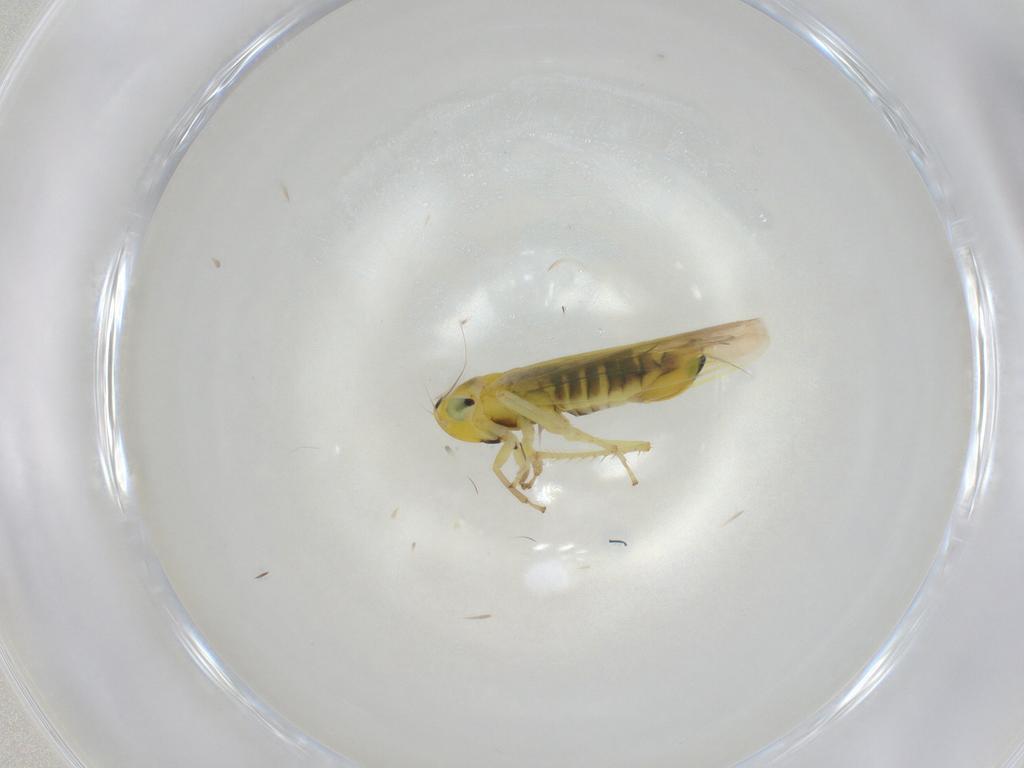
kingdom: Animalia
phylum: Arthropoda
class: Insecta
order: Hemiptera
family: Cicadellidae
